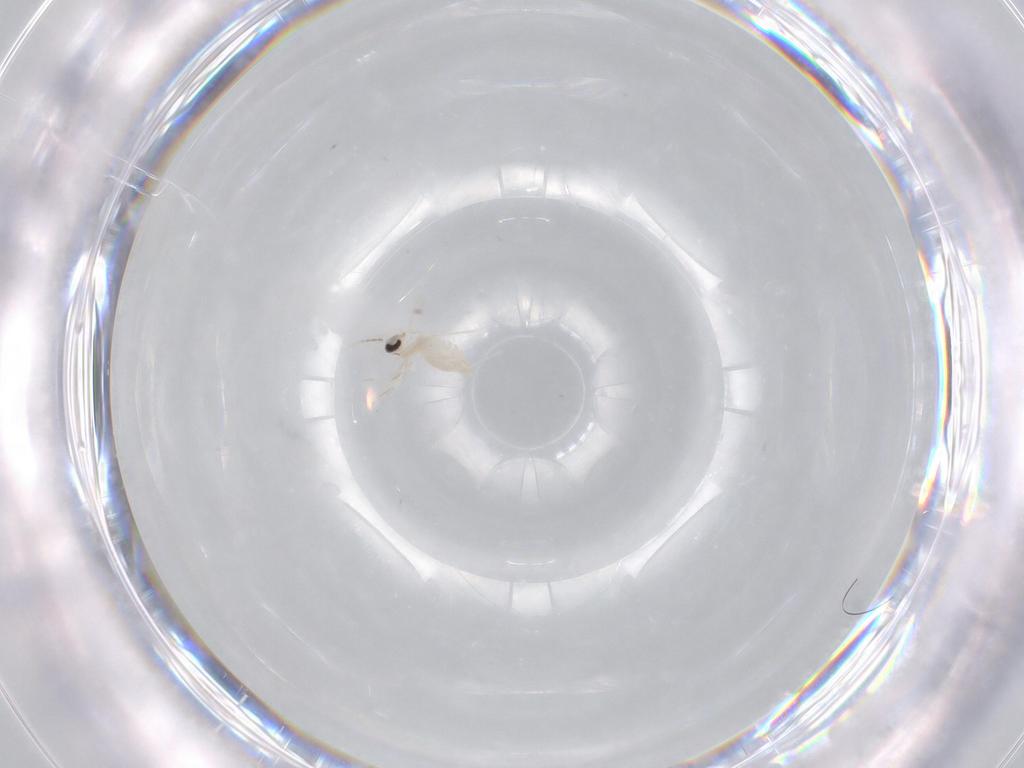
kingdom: Animalia
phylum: Arthropoda
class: Insecta
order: Diptera
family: Cecidomyiidae
